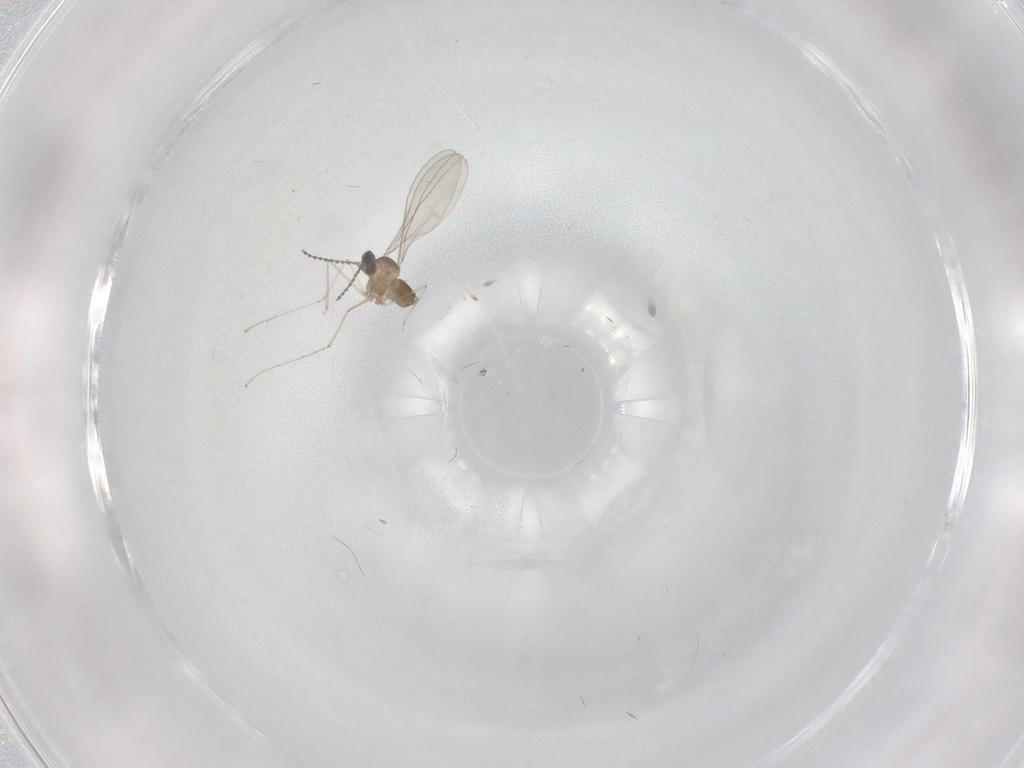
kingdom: Animalia
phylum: Arthropoda
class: Insecta
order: Diptera
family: Cecidomyiidae
